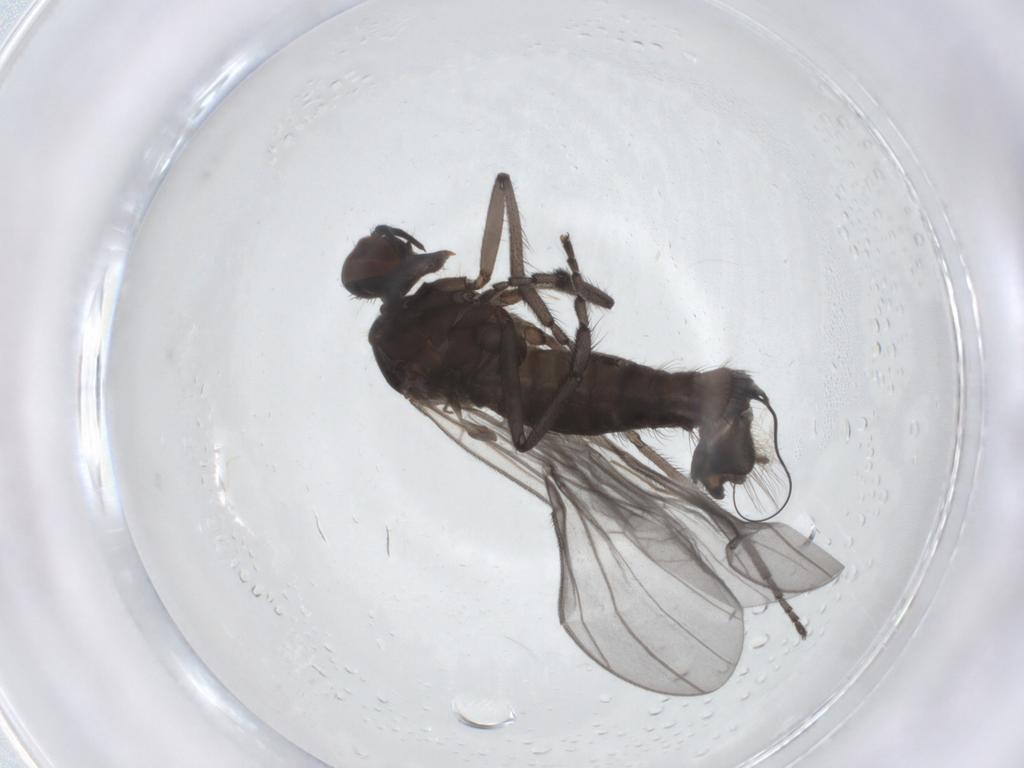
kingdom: Animalia
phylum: Arthropoda
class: Insecta
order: Diptera
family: Empididae
